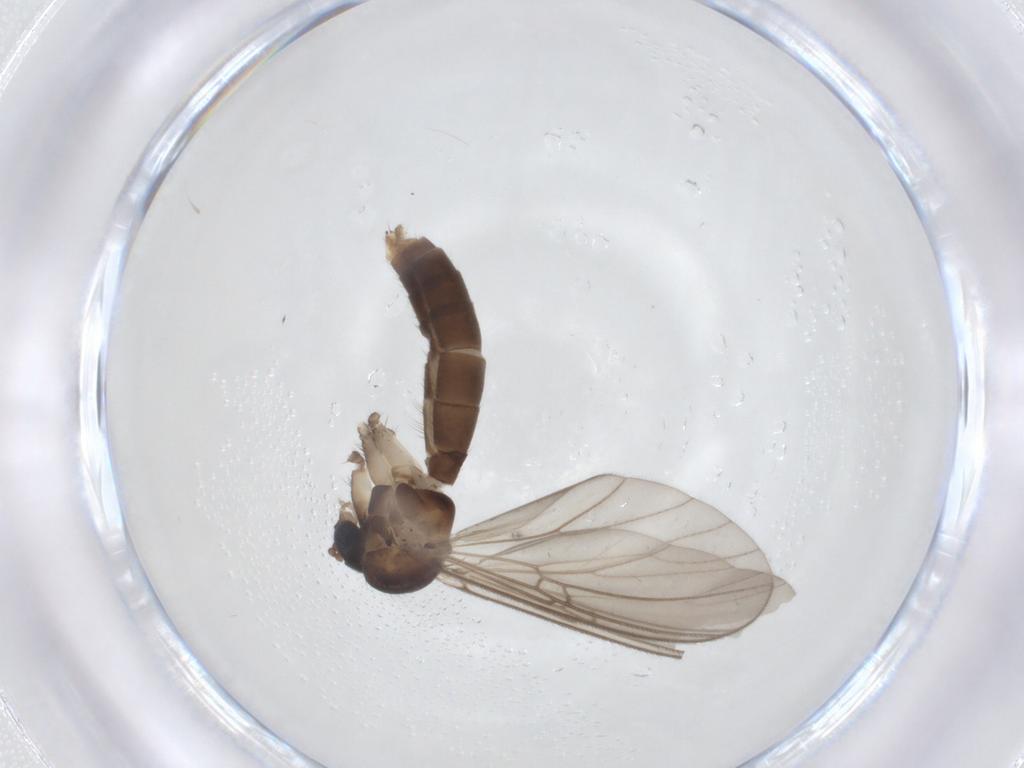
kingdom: Animalia
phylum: Arthropoda
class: Insecta
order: Diptera
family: Mycetophilidae
